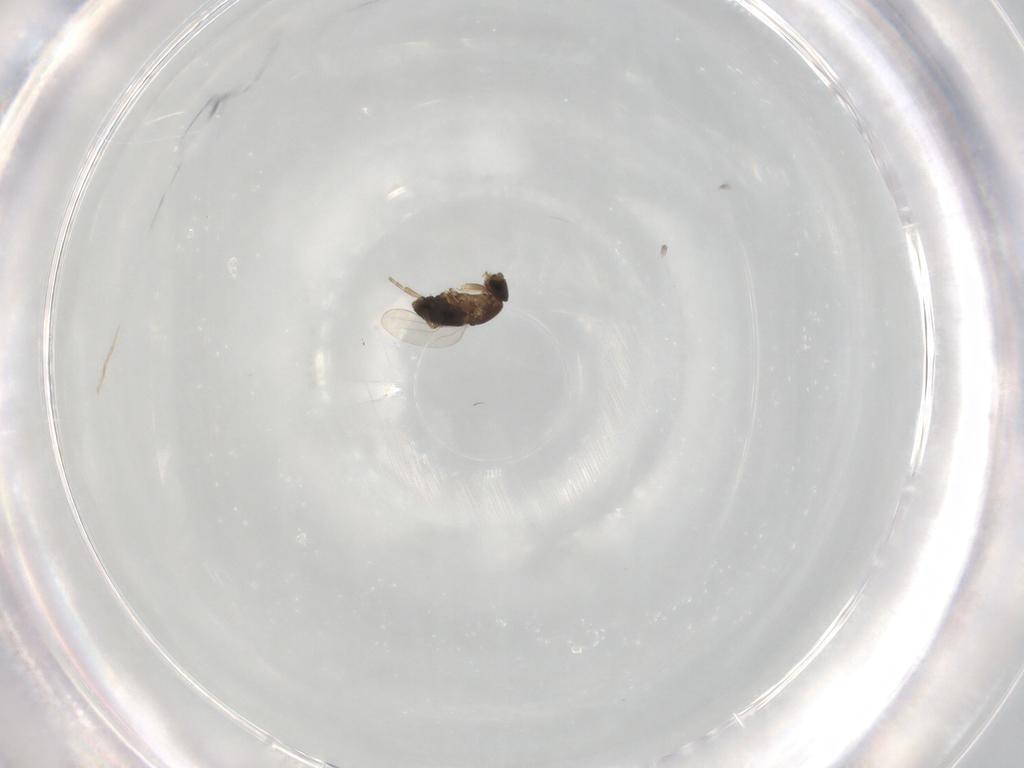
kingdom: Animalia
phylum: Arthropoda
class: Insecta
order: Diptera
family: Phoridae
